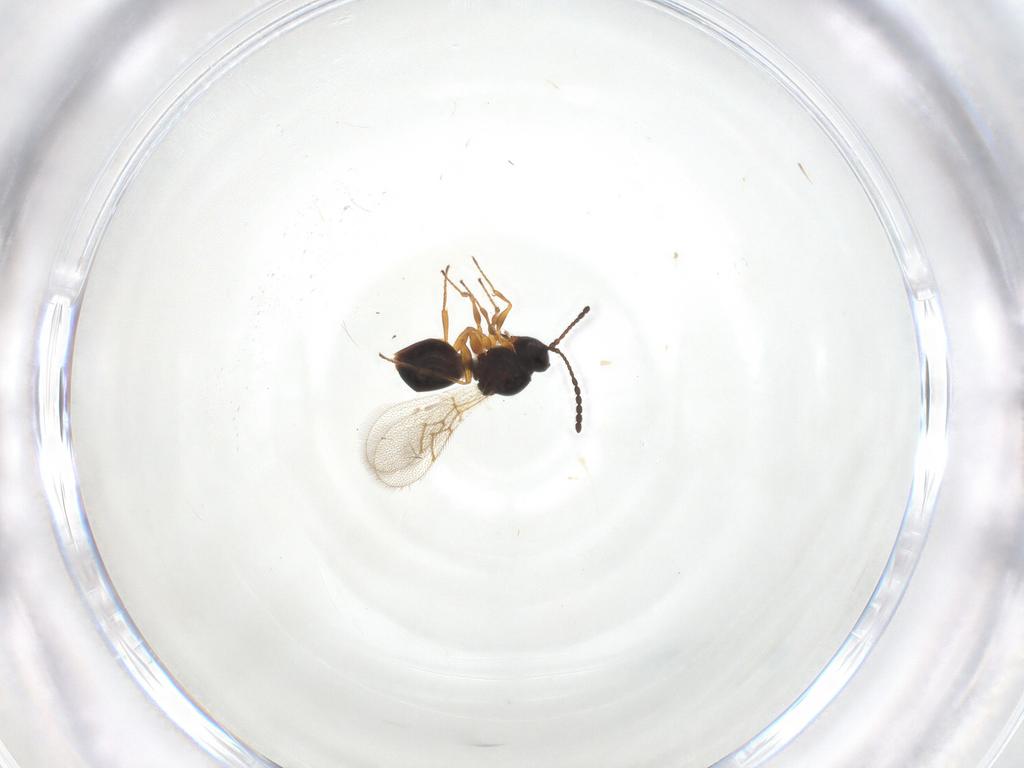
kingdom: Animalia
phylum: Arthropoda
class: Insecta
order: Hymenoptera
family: Figitidae
